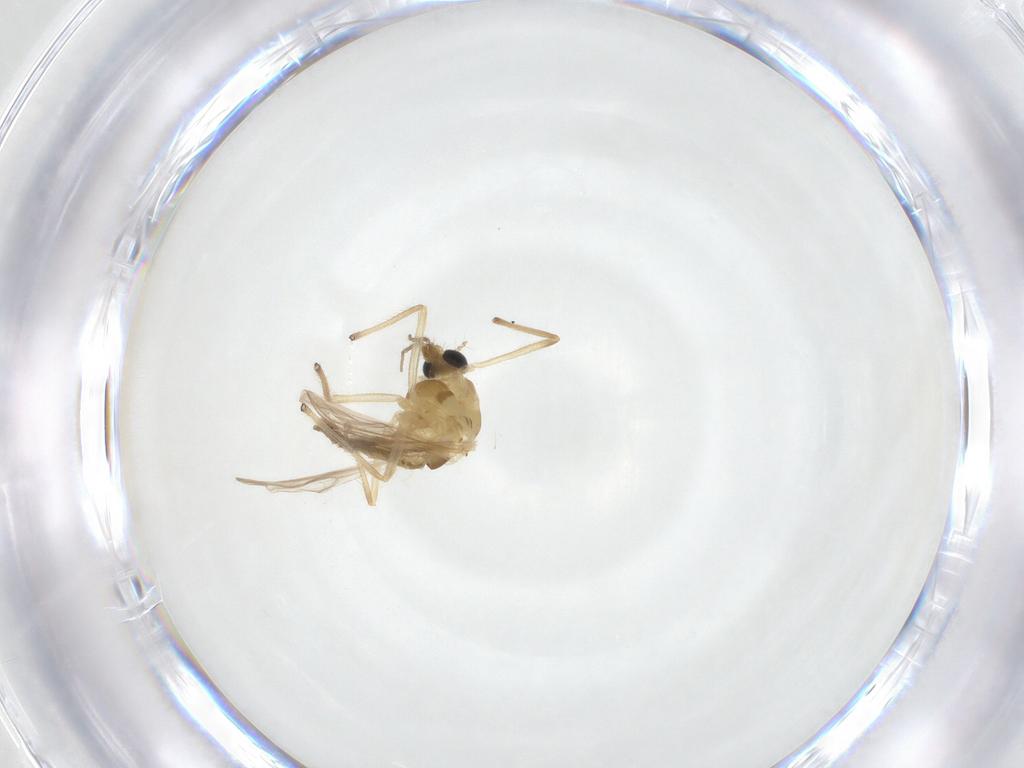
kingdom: Animalia
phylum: Arthropoda
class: Insecta
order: Diptera
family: Chironomidae
